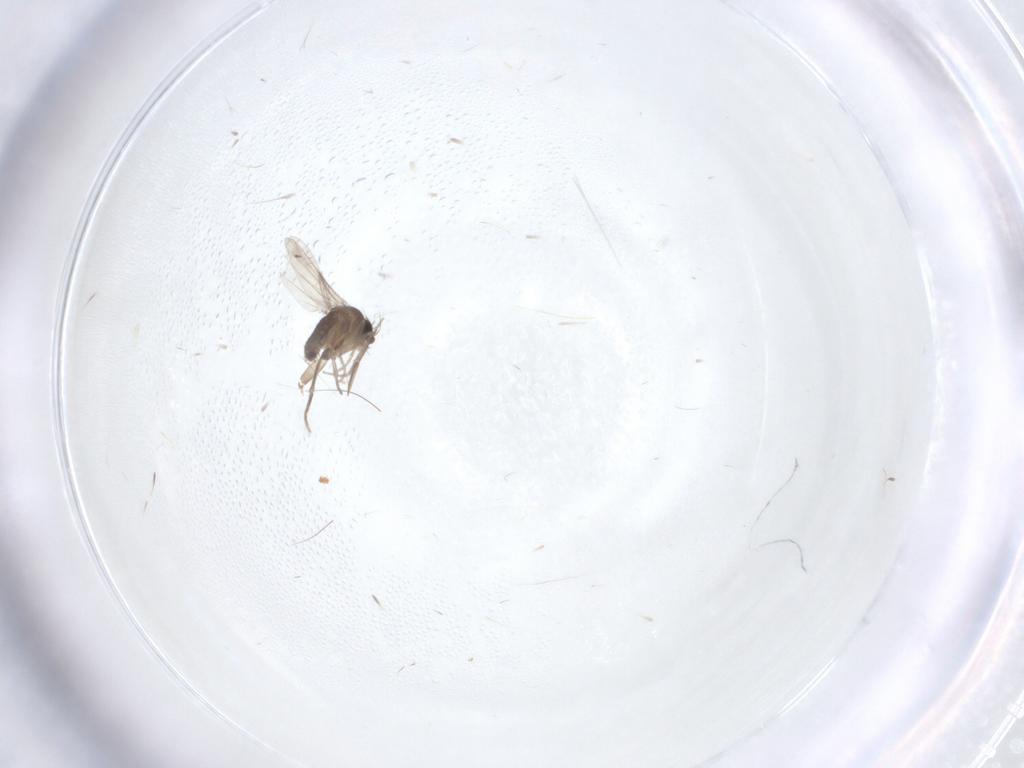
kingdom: Animalia
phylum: Arthropoda
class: Insecta
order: Diptera
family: Phoridae
